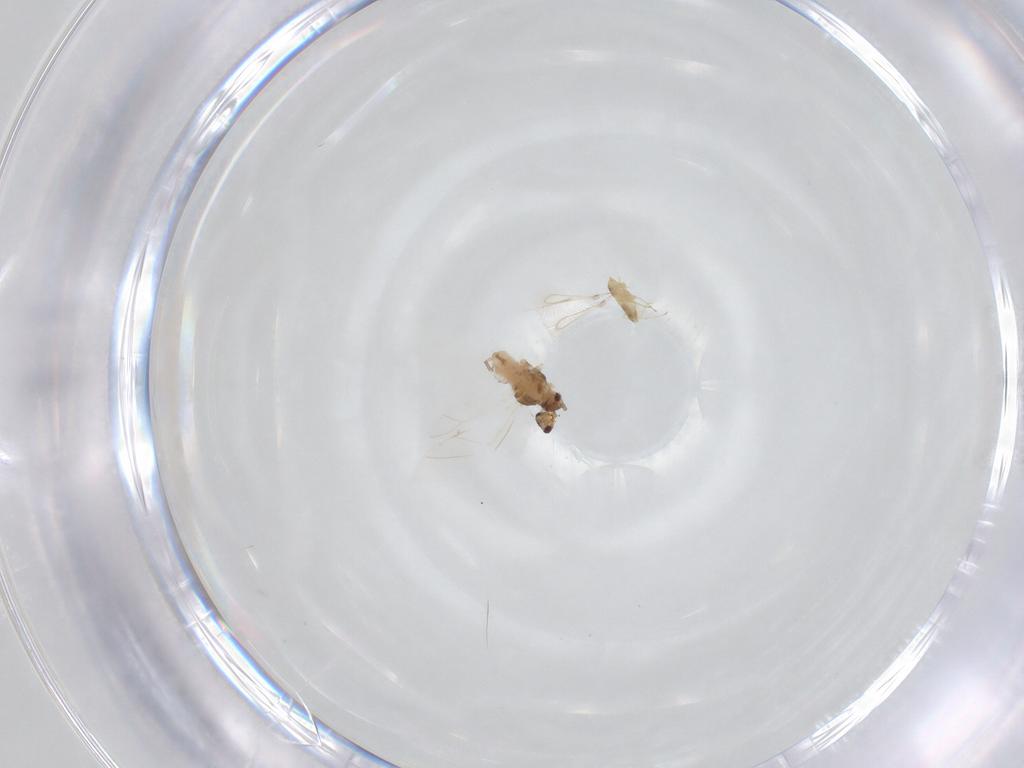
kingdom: Animalia
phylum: Arthropoda
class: Insecta
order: Hemiptera
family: Aphididae
